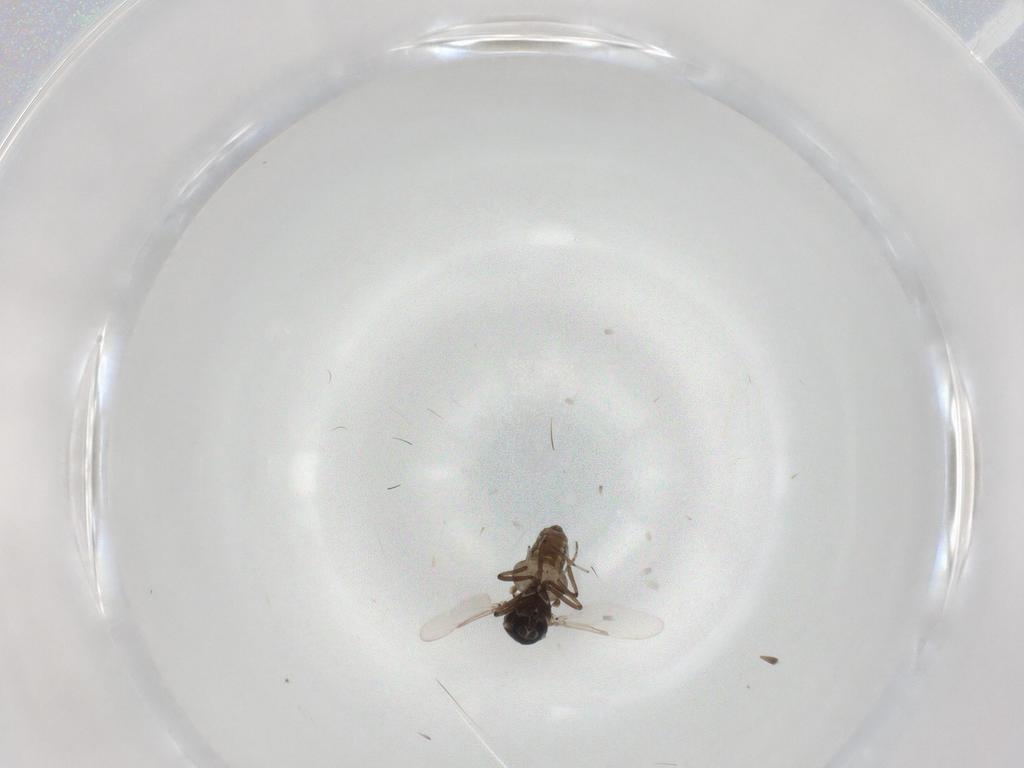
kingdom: Animalia
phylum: Arthropoda
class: Insecta
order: Diptera
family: Ceratopogonidae
